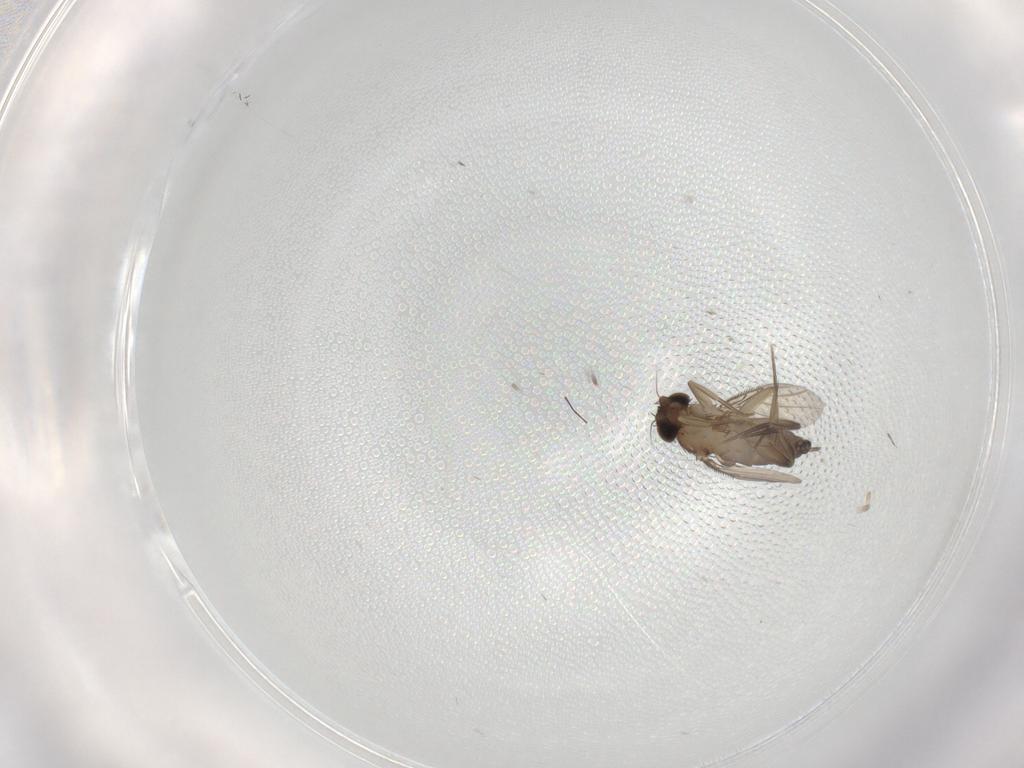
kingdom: Animalia
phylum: Arthropoda
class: Insecta
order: Diptera
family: Phoridae
